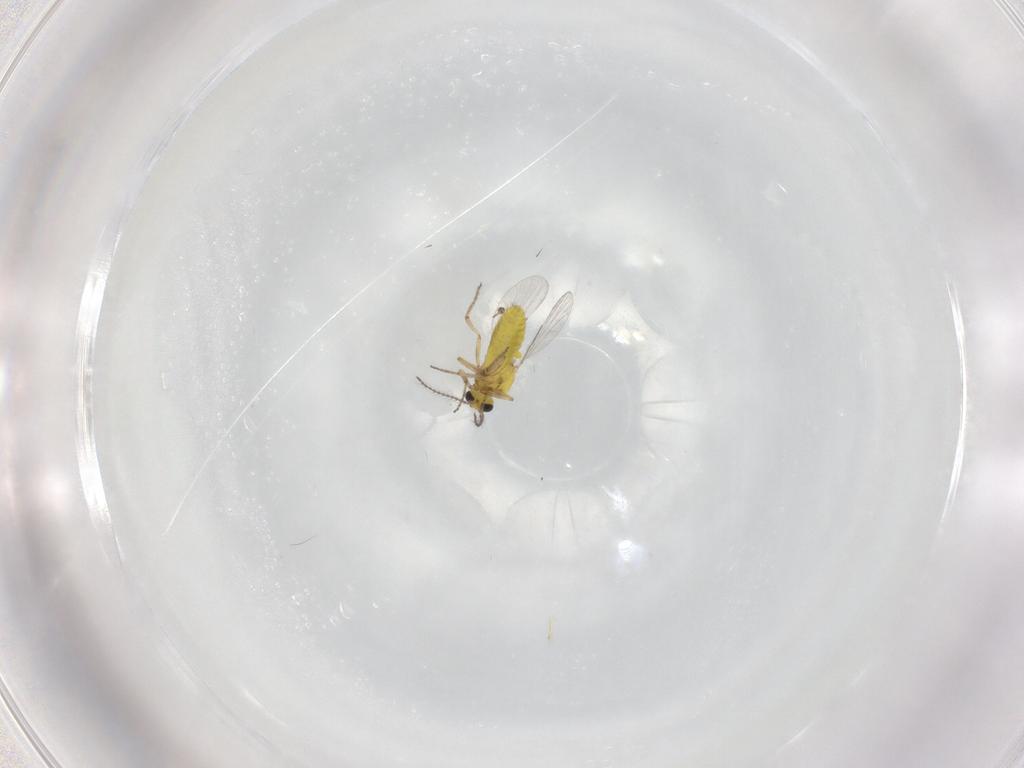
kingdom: Animalia
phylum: Arthropoda
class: Insecta
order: Diptera
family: Ceratopogonidae
